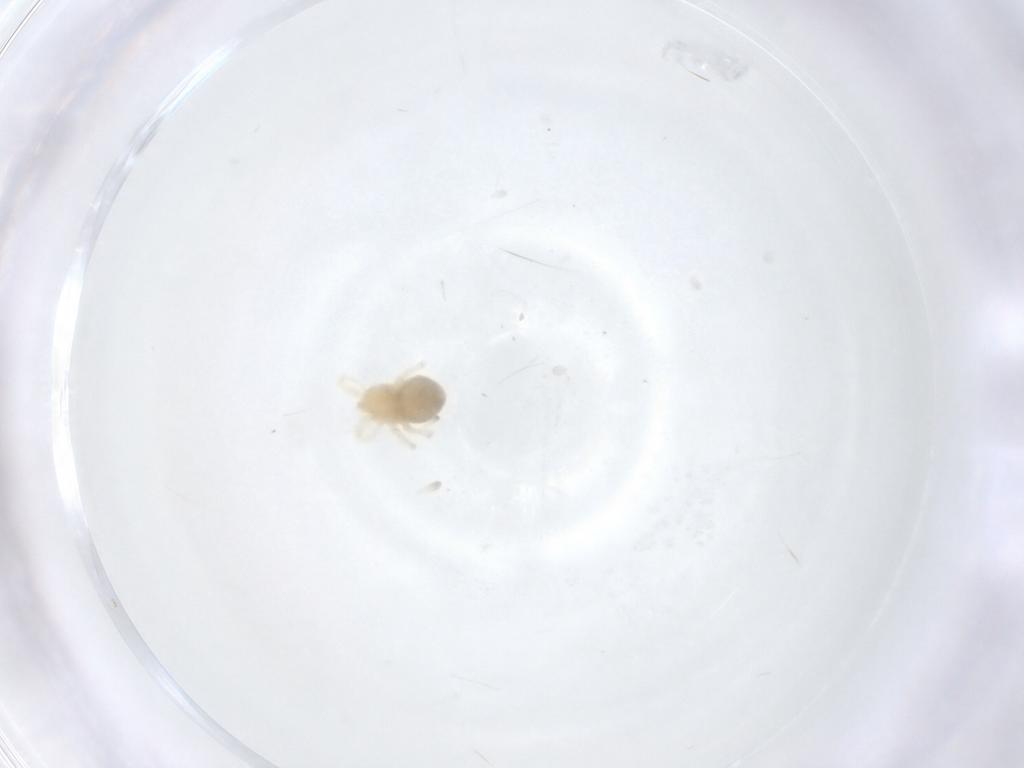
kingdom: Animalia
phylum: Arthropoda
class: Arachnida
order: Trombidiformes
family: Anystidae
